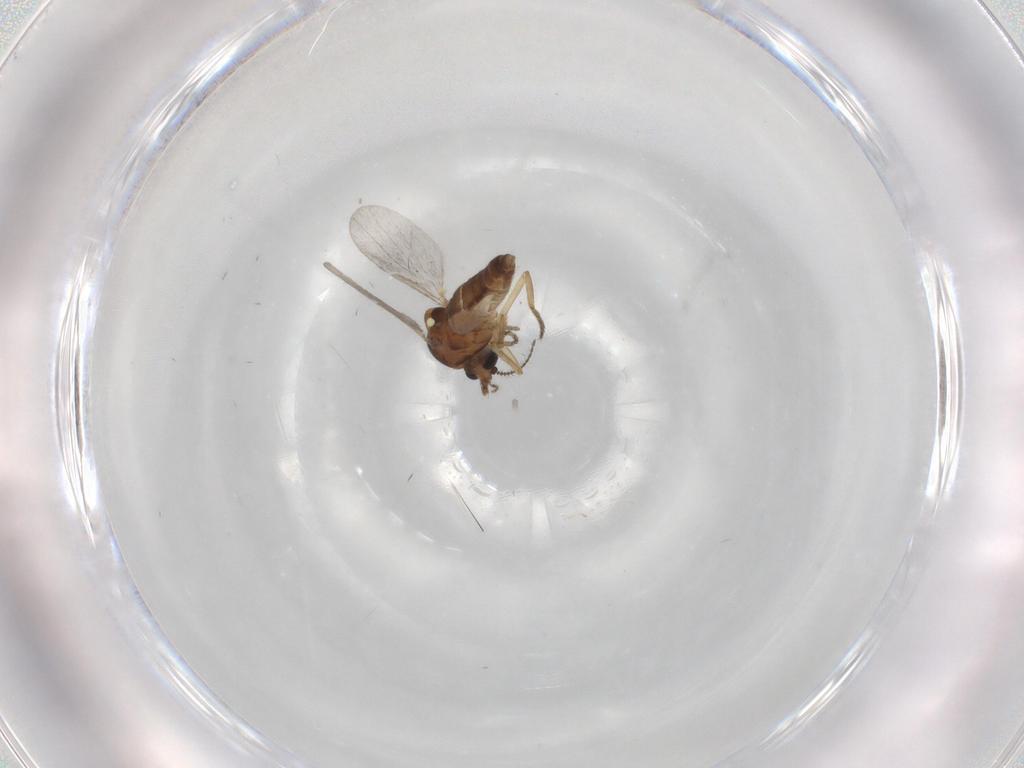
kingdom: Animalia
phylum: Arthropoda
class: Insecta
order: Diptera
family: Ceratopogonidae
